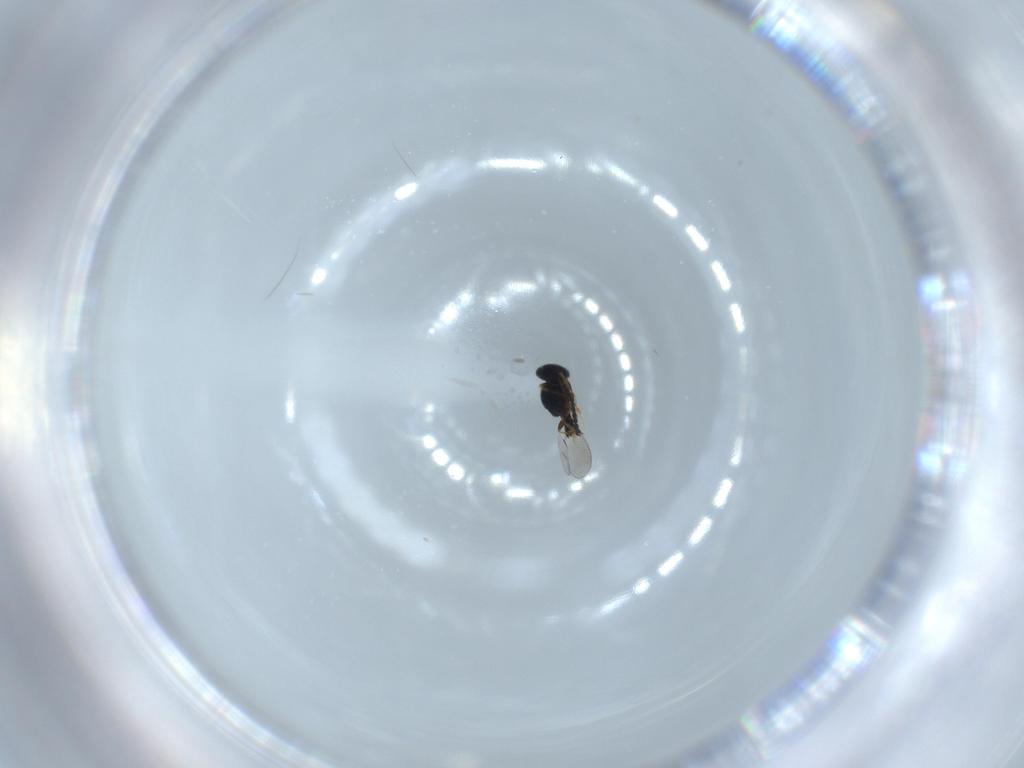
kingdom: Animalia
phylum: Arthropoda
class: Insecta
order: Hymenoptera
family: Platygastridae
